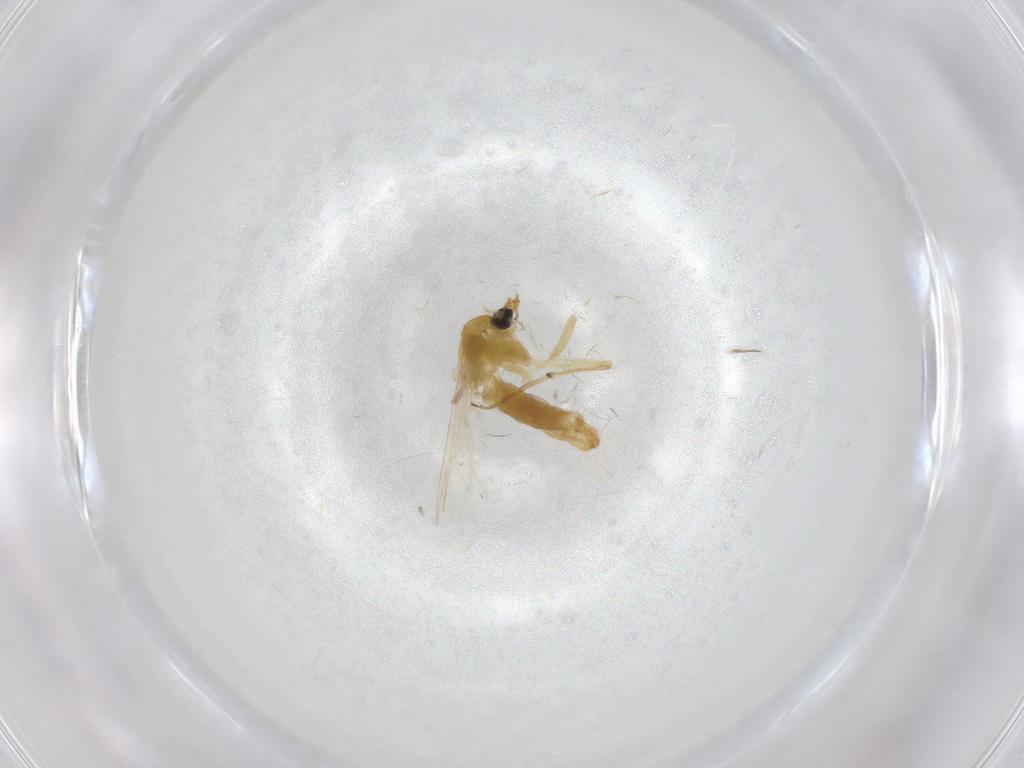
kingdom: Animalia
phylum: Arthropoda
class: Insecta
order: Diptera
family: Chironomidae
